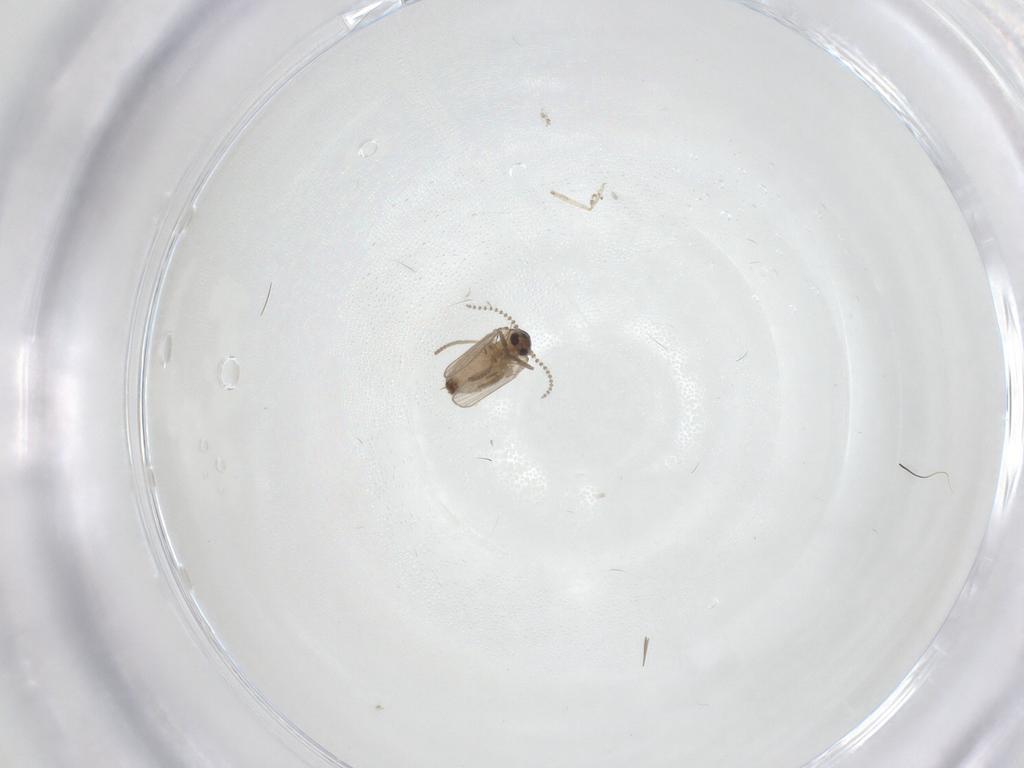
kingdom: Animalia
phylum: Arthropoda
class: Insecta
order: Diptera
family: Psychodidae
